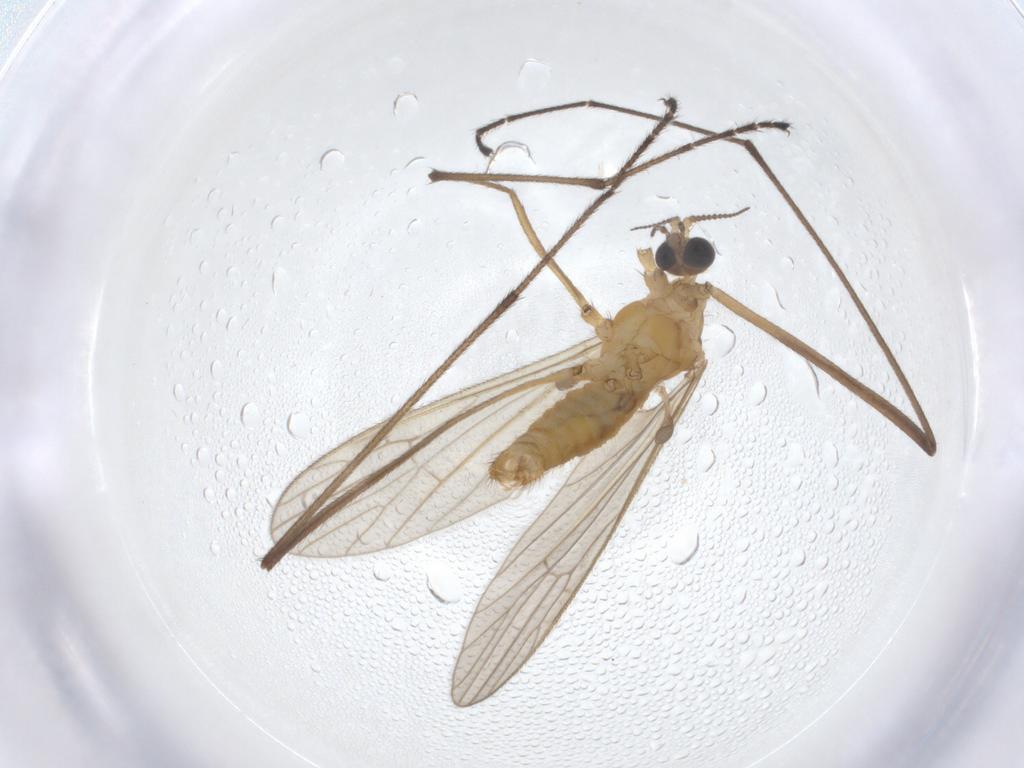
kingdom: Animalia
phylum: Arthropoda
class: Insecta
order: Diptera
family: Limoniidae
